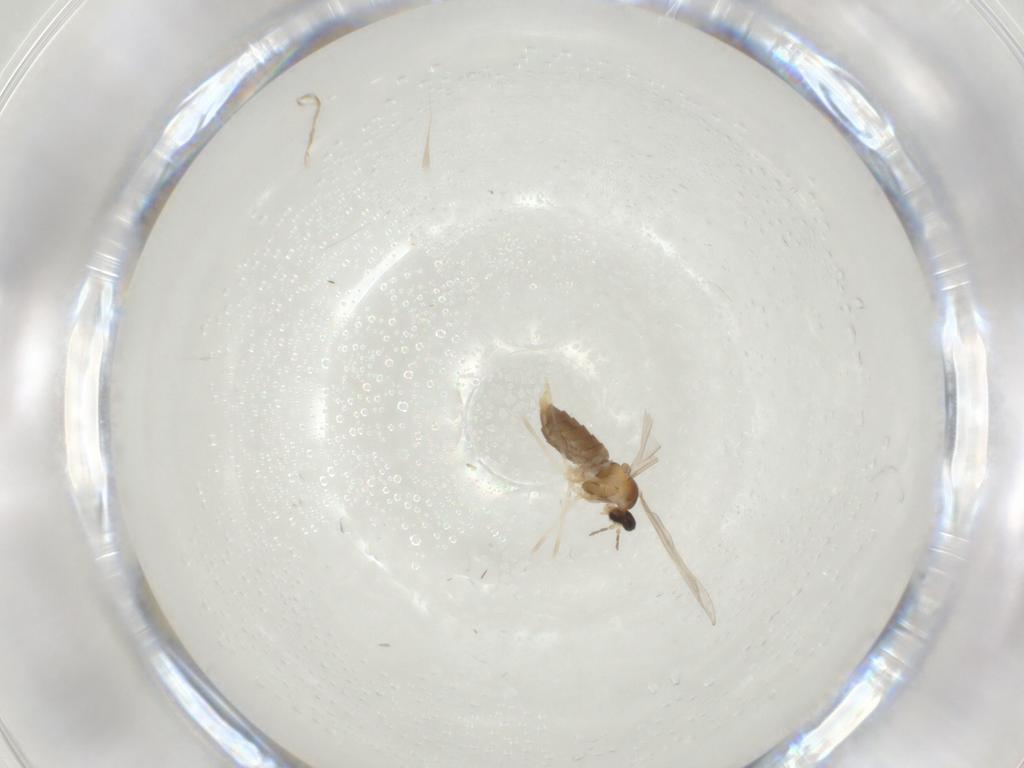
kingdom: Animalia
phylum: Arthropoda
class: Insecta
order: Diptera
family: Cecidomyiidae
